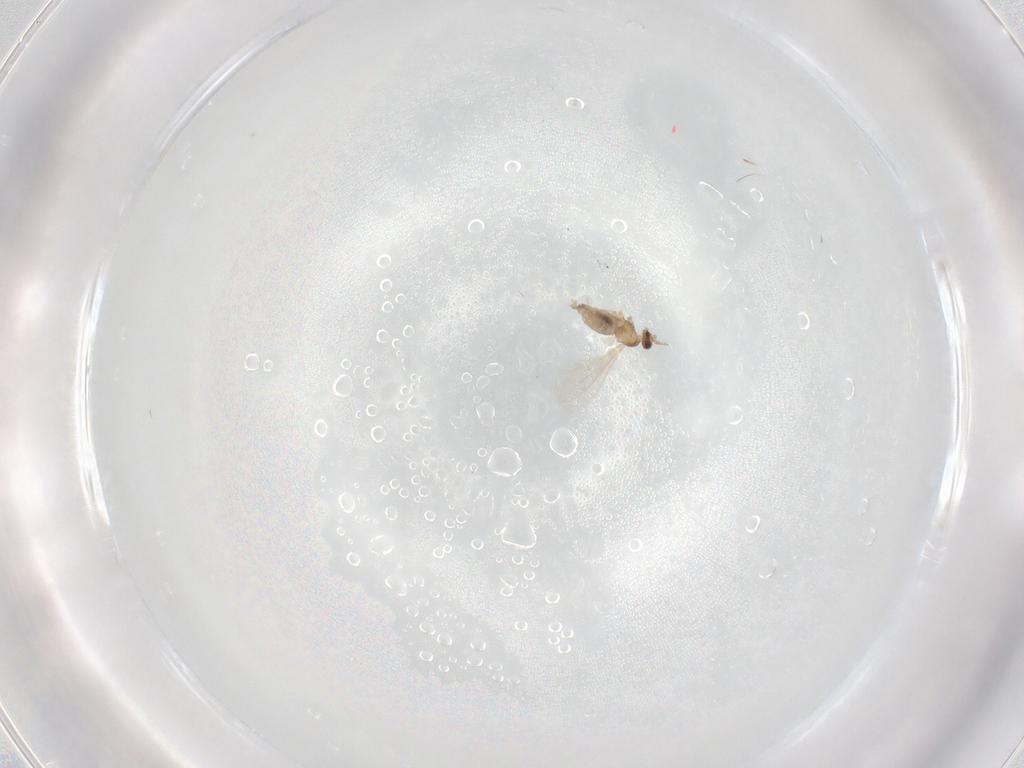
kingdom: Animalia
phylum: Arthropoda
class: Insecta
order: Diptera
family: Cecidomyiidae
